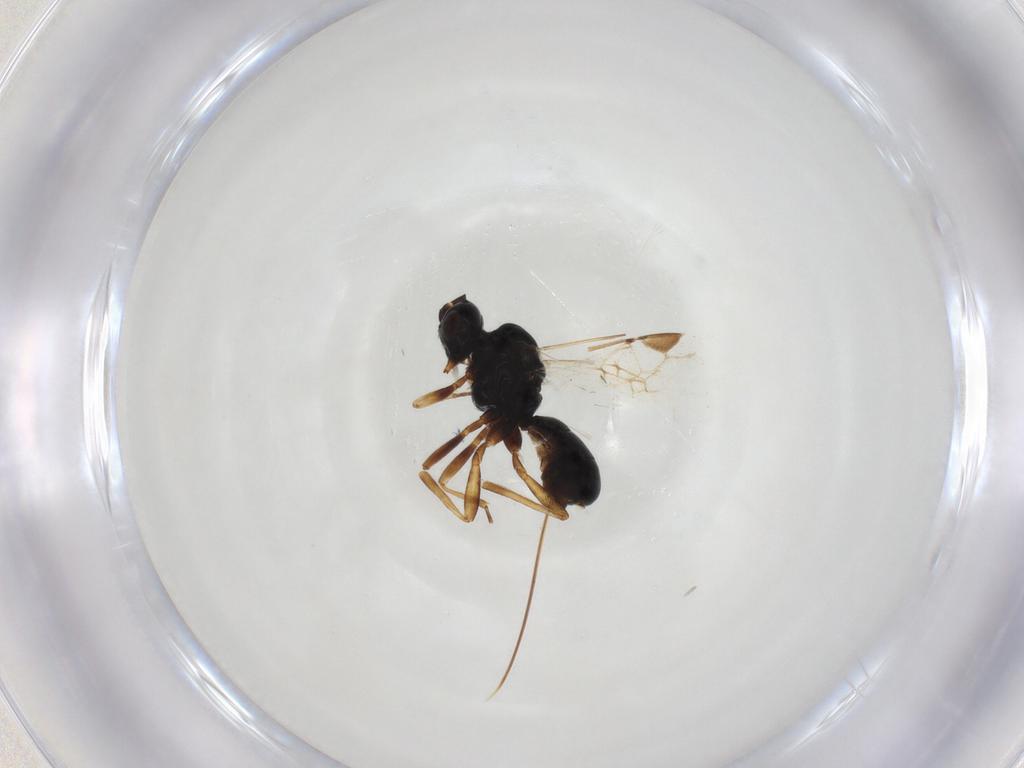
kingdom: Animalia
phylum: Arthropoda
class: Insecta
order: Hymenoptera
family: Braconidae
